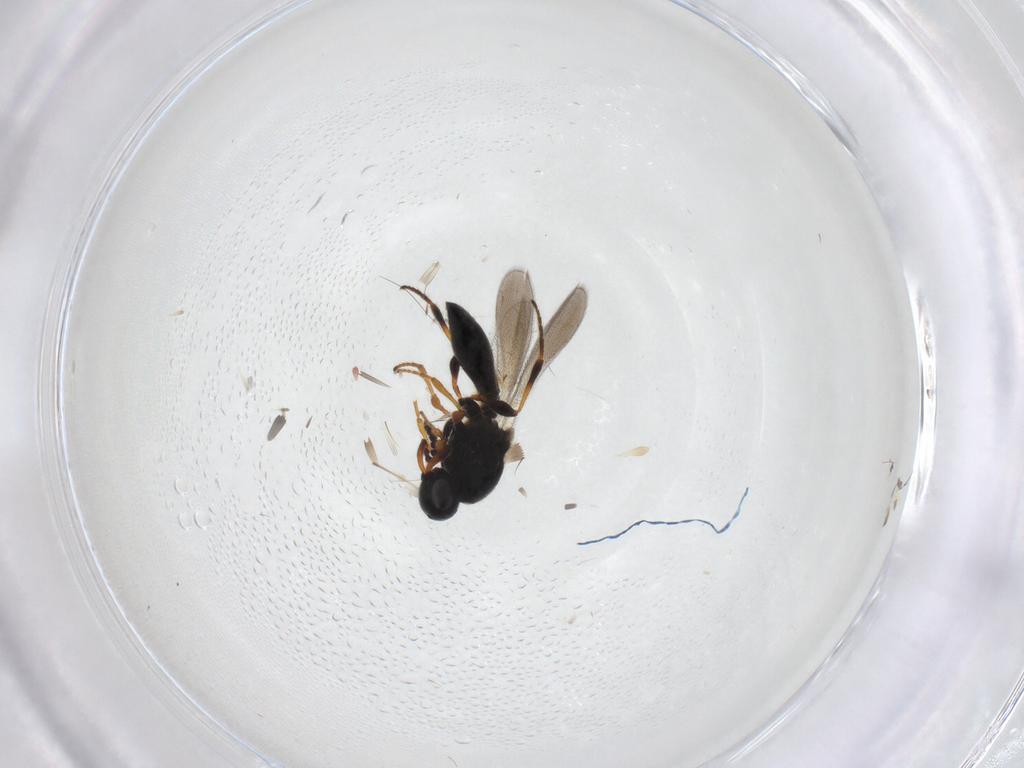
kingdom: Animalia
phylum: Arthropoda
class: Insecta
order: Hymenoptera
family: Platygastridae
